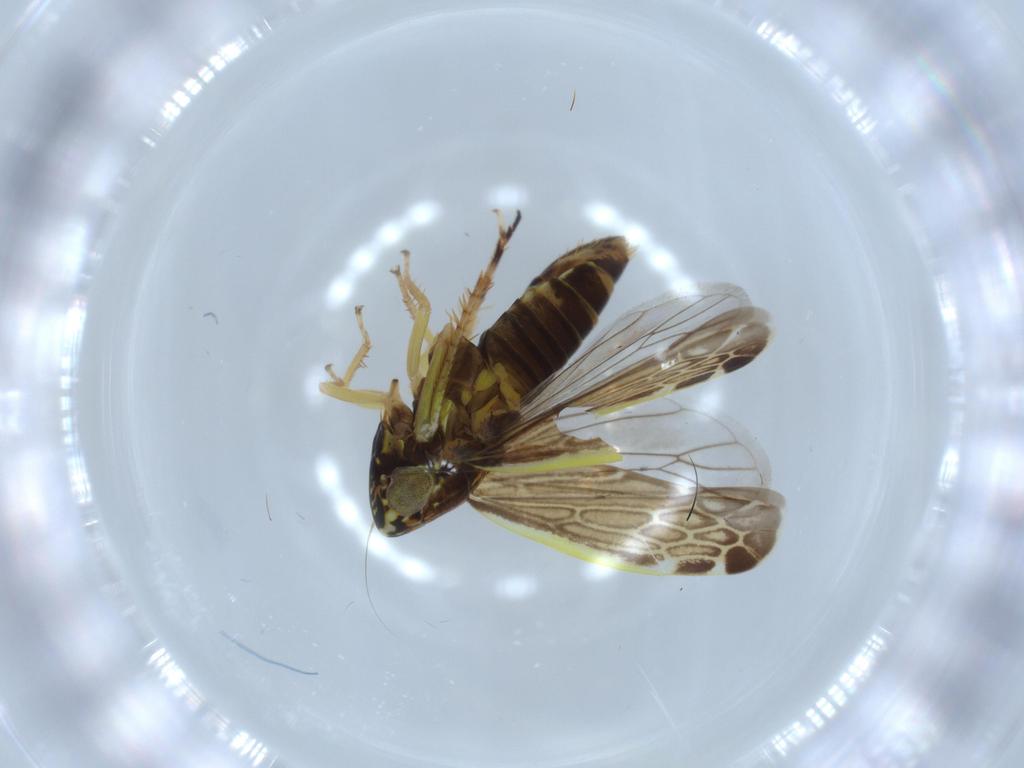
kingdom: Animalia
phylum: Arthropoda
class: Insecta
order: Hemiptera
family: Cicadellidae
